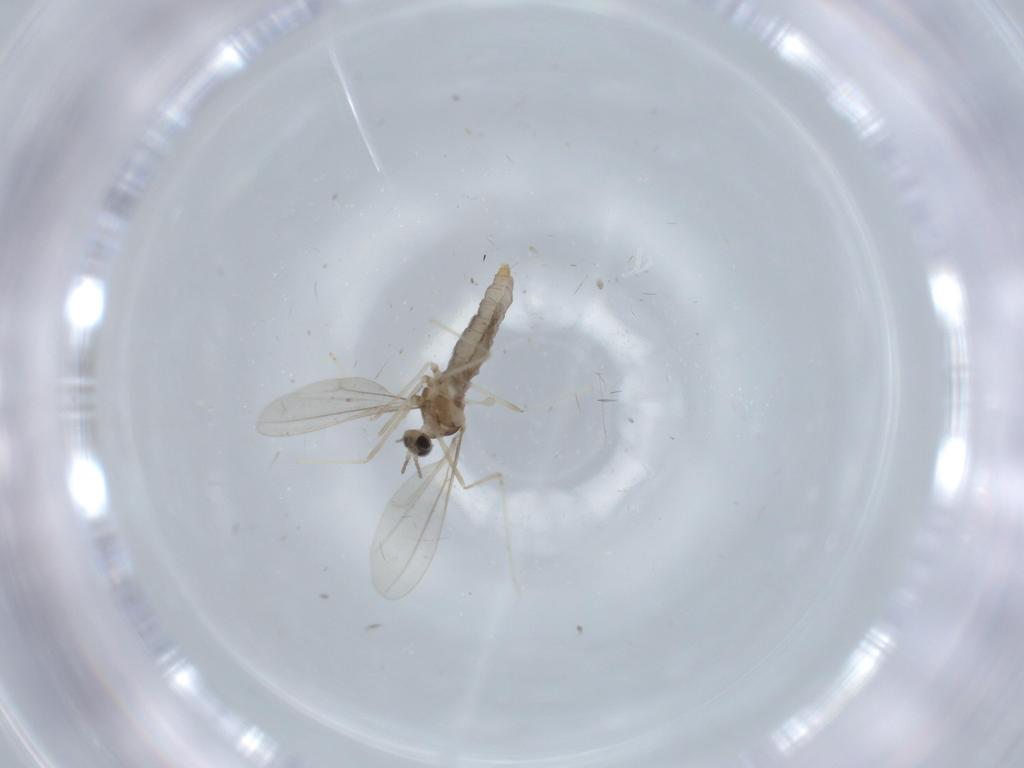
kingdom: Animalia
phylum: Arthropoda
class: Insecta
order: Diptera
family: Cecidomyiidae
